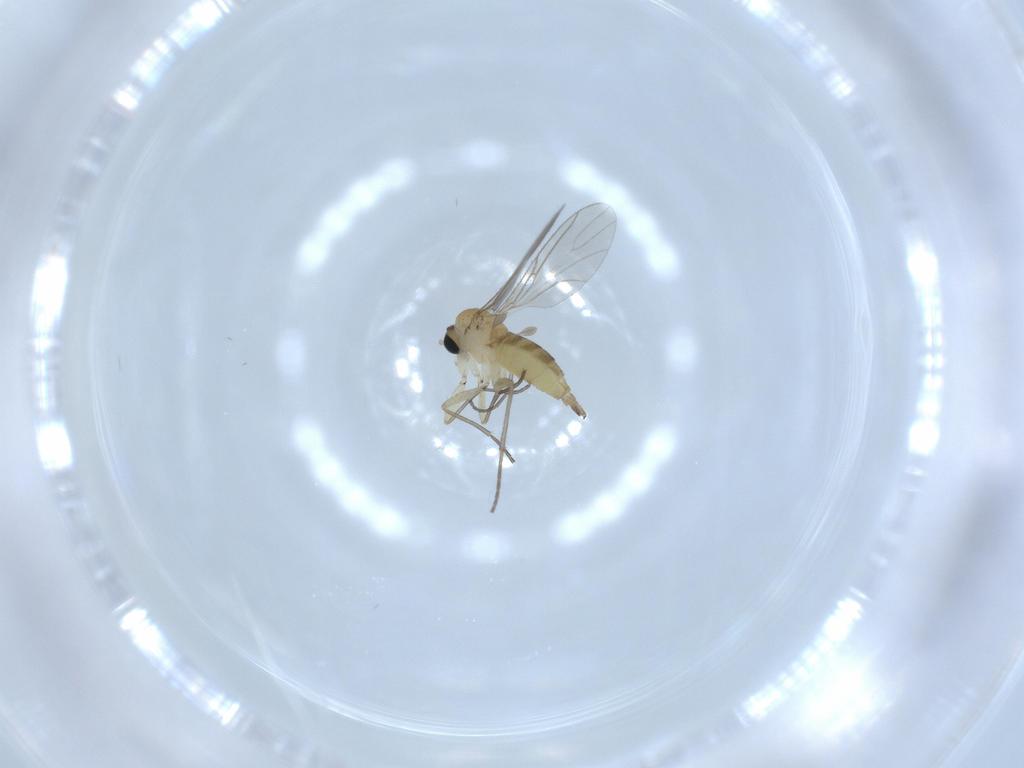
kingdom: Animalia
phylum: Arthropoda
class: Insecta
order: Diptera
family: Sciaridae
